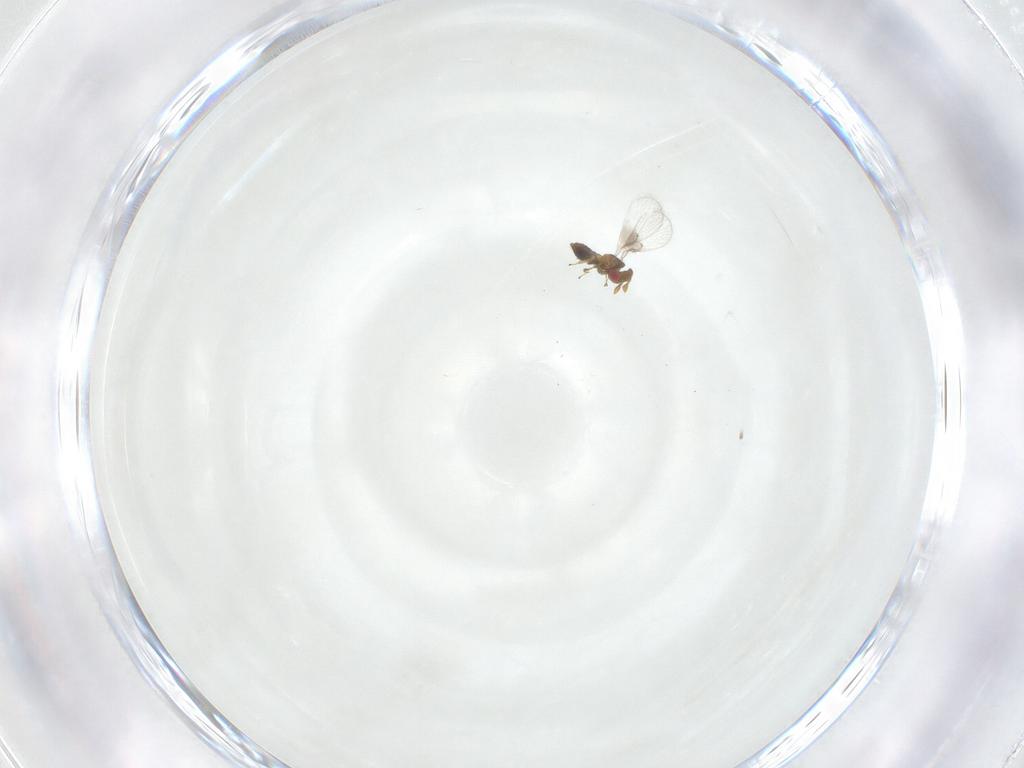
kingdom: Animalia
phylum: Arthropoda
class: Insecta
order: Hymenoptera
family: Trichogrammatidae
